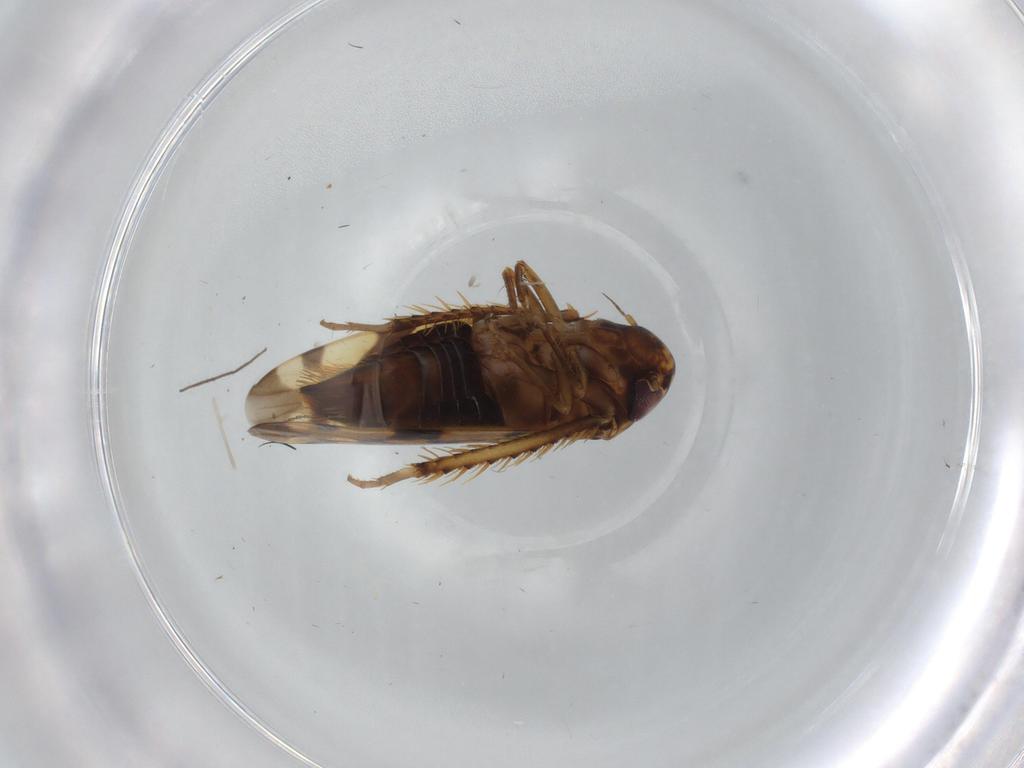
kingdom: Animalia
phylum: Arthropoda
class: Insecta
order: Hemiptera
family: Cicadellidae
